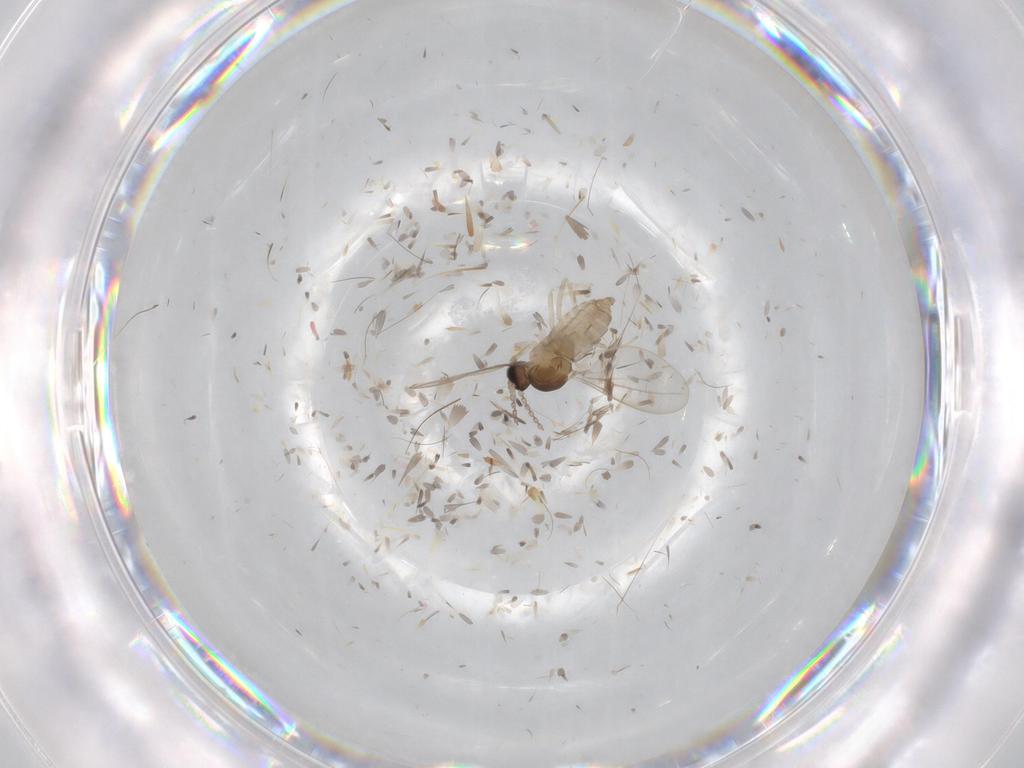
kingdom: Animalia
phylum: Arthropoda
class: Insecta
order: Diptera
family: Cecidomyiidae
